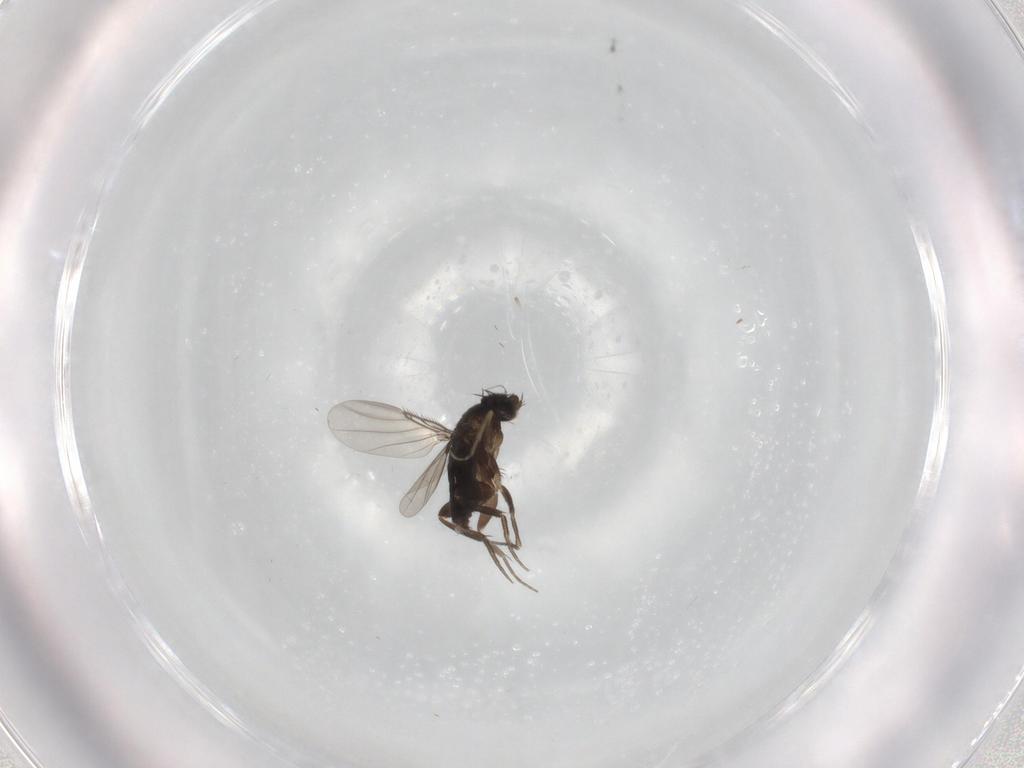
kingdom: Animalia
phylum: Arthropoda
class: Insecta
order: Diptera
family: Phoridae
